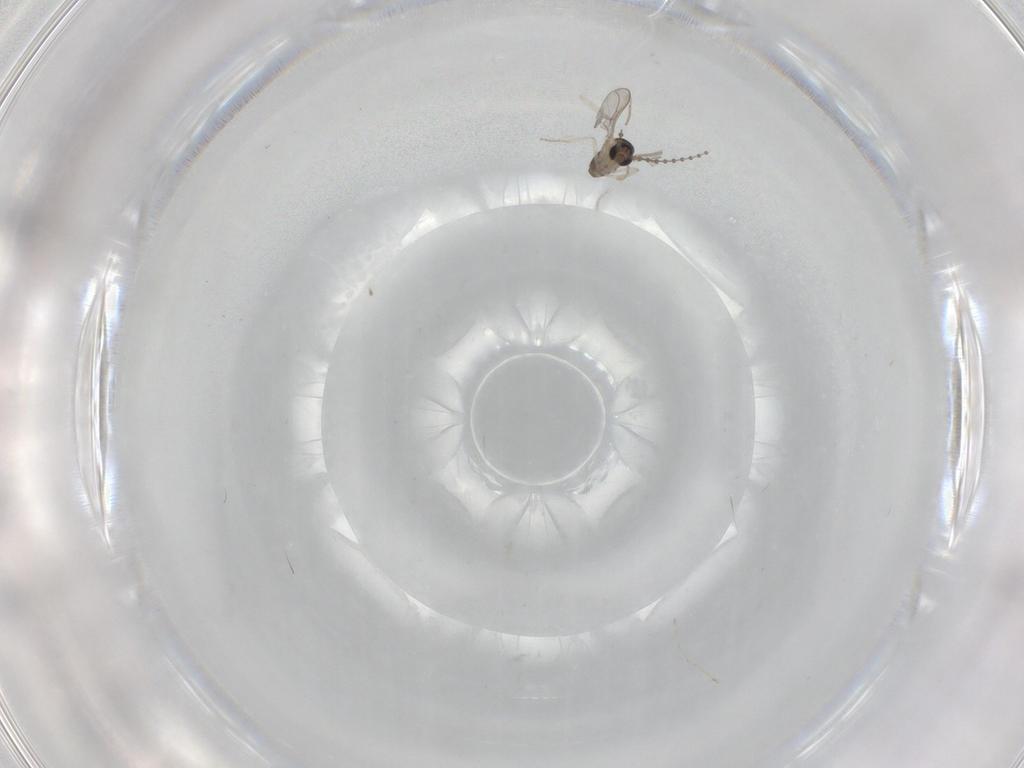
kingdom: Animalia
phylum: Arthropoda
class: Insecta
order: Diptera
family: Cecidomyiidae
